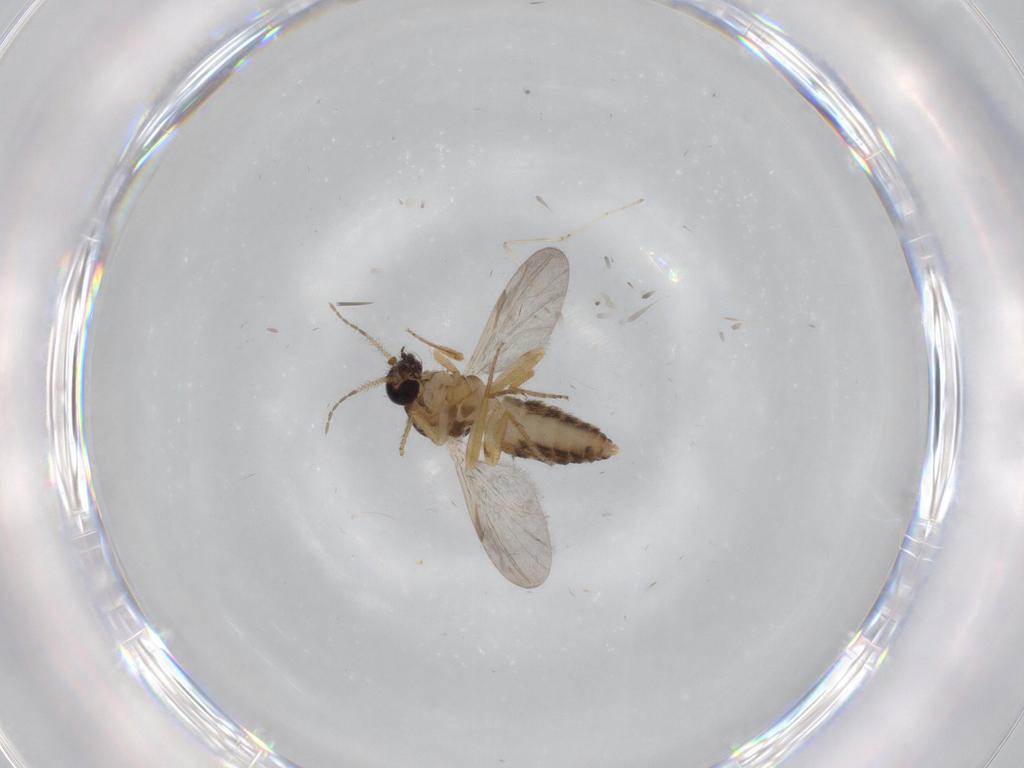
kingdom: Animalia
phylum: Arthropoda
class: Insecta
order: Diptera
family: Ceratopogonidae
